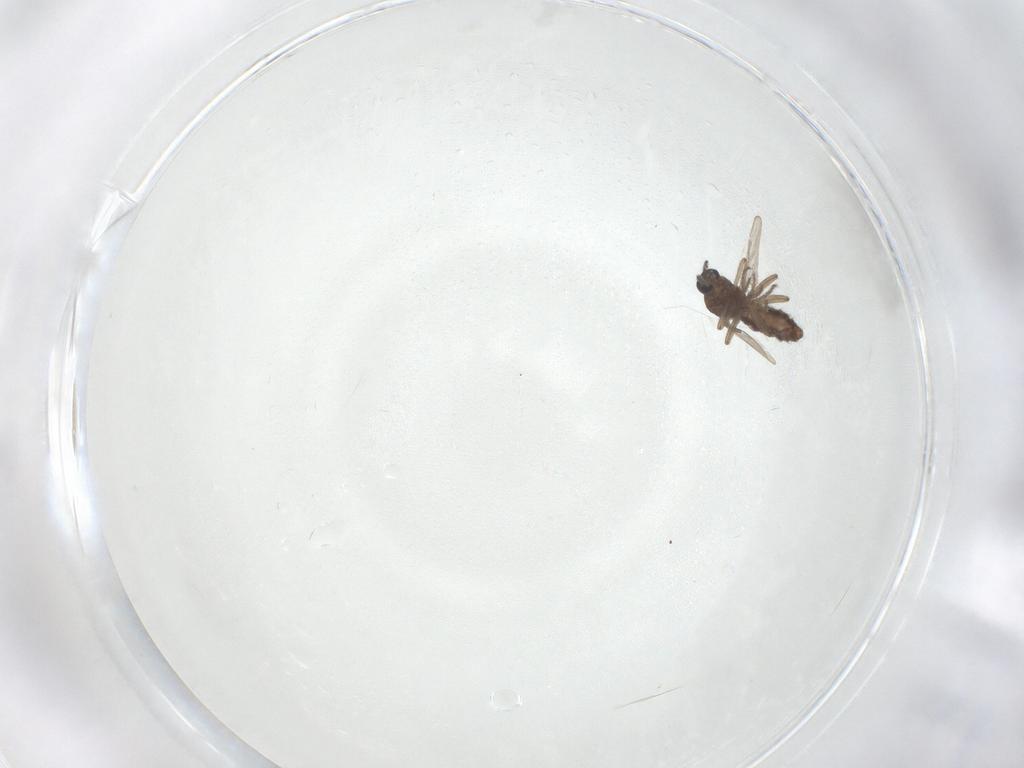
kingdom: Animalia
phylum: Arthropoda
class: Insecta
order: Diptera
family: Ceratopogonidae
